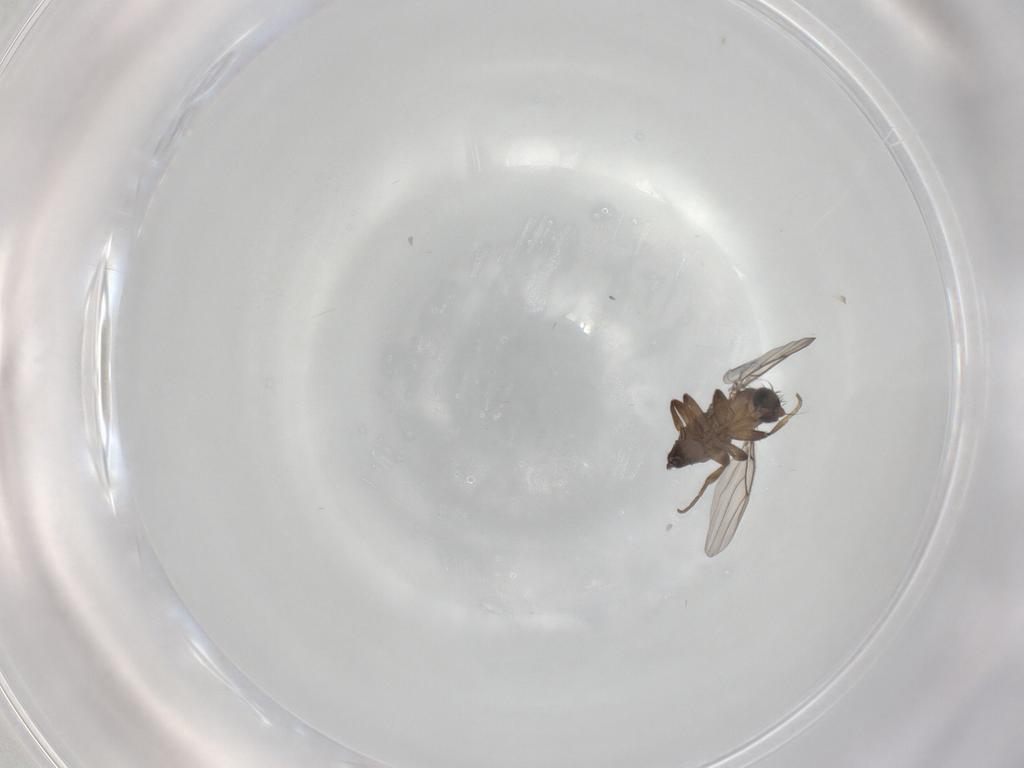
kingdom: Animalia
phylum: Arthropoda
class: Insecta
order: Diptera
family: Phoridae
